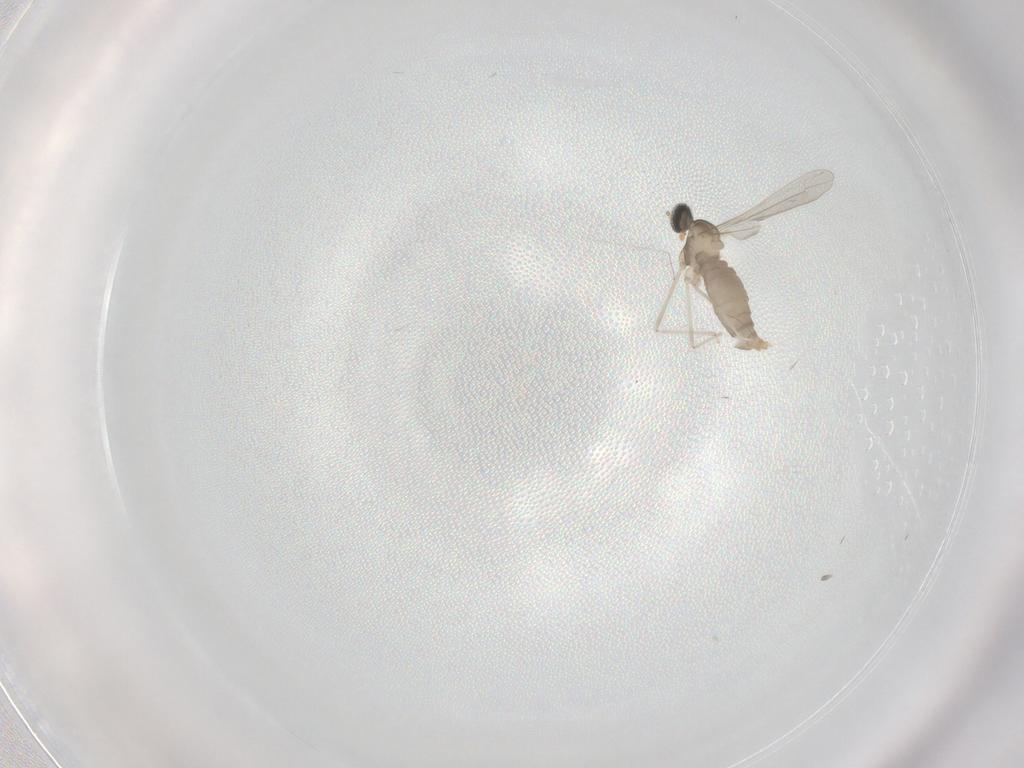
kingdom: Animalia
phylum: Arthropoda
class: Insecta
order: Diptera
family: Cecidomyiidae
